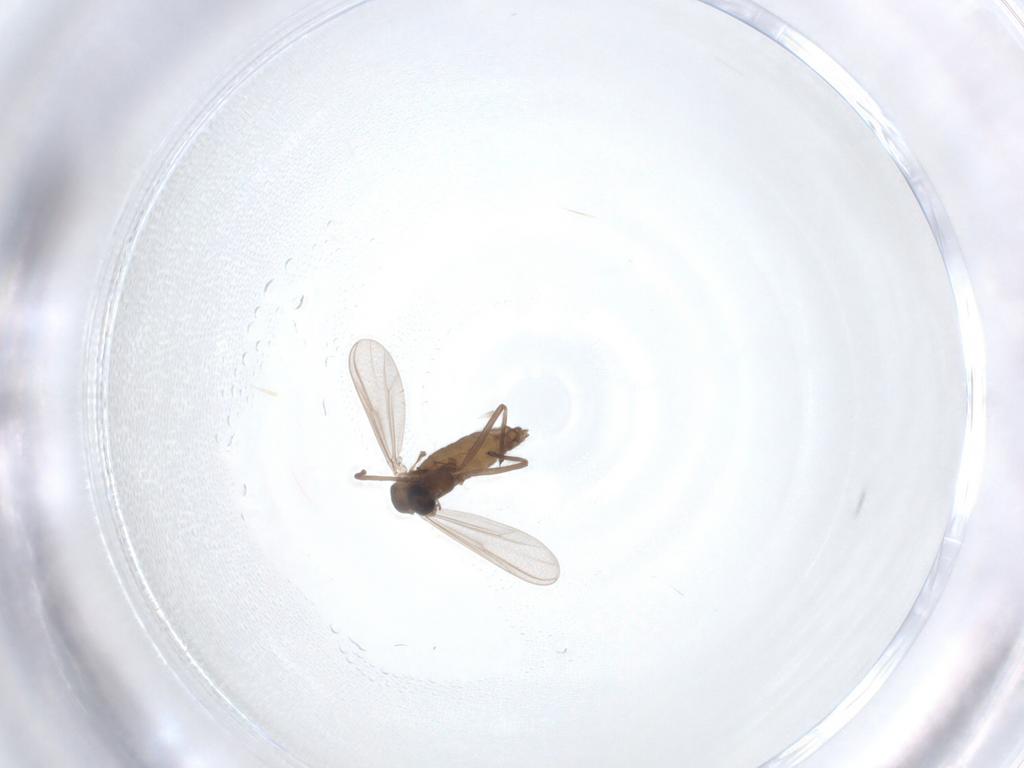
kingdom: Animalia
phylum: Arthropoda
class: Insecta
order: Diptera
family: Chironomidae
